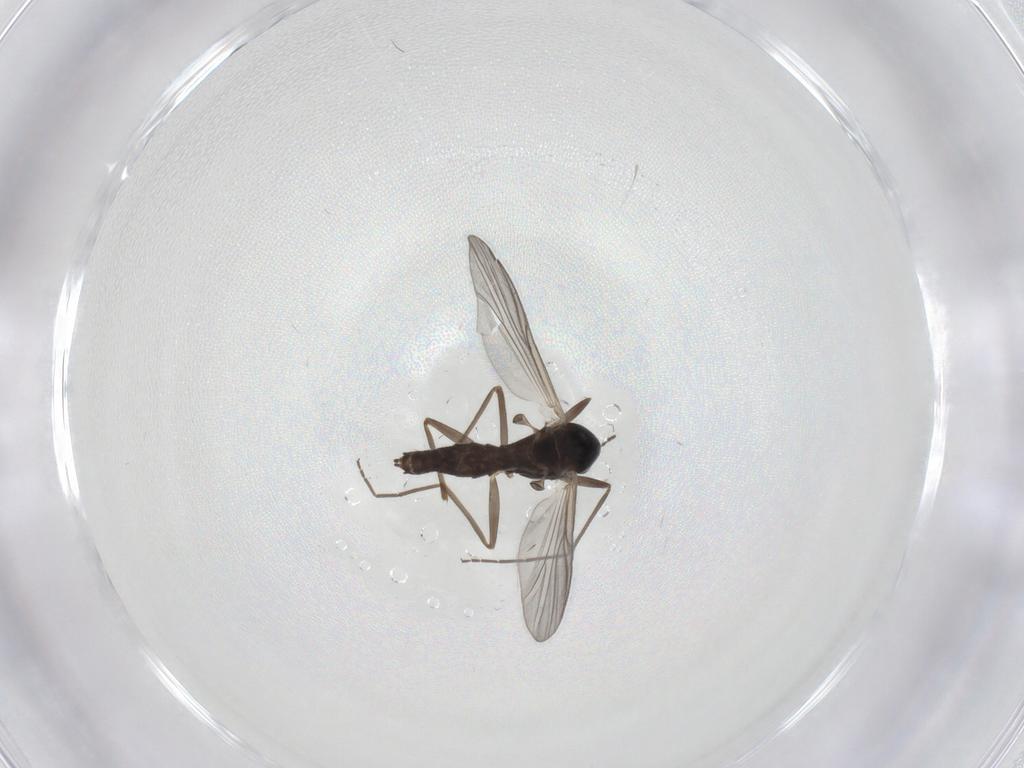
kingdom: Animalia
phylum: Arthropoda
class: Insecta
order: Diptera
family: Chironomidae
